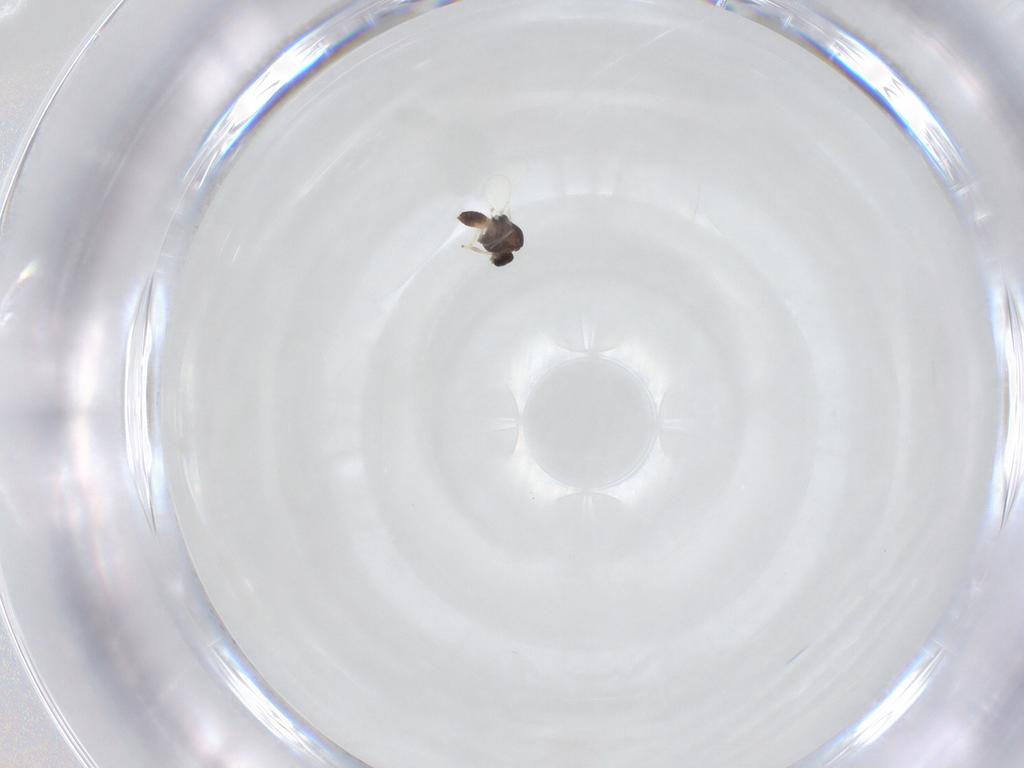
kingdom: Animalia
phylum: Arthropoda
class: Insecta
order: Diptera
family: Chironomidae
